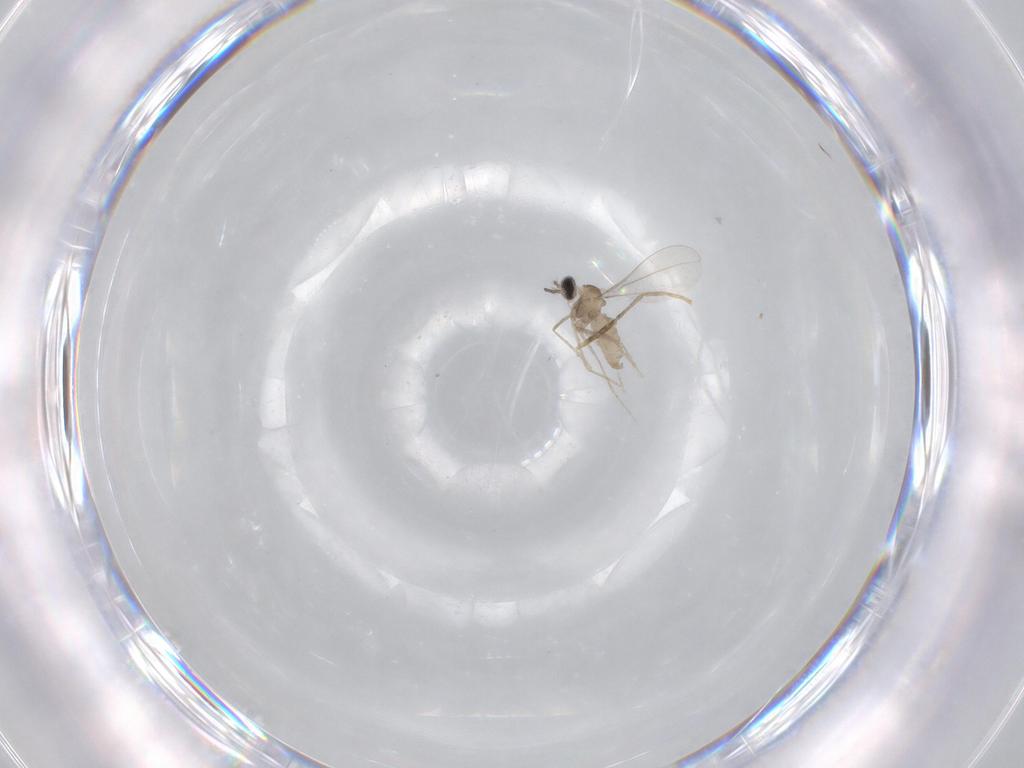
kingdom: Animalia
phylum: Arthropoda
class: Insecta
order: Diptera
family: Cecidomyiidae
